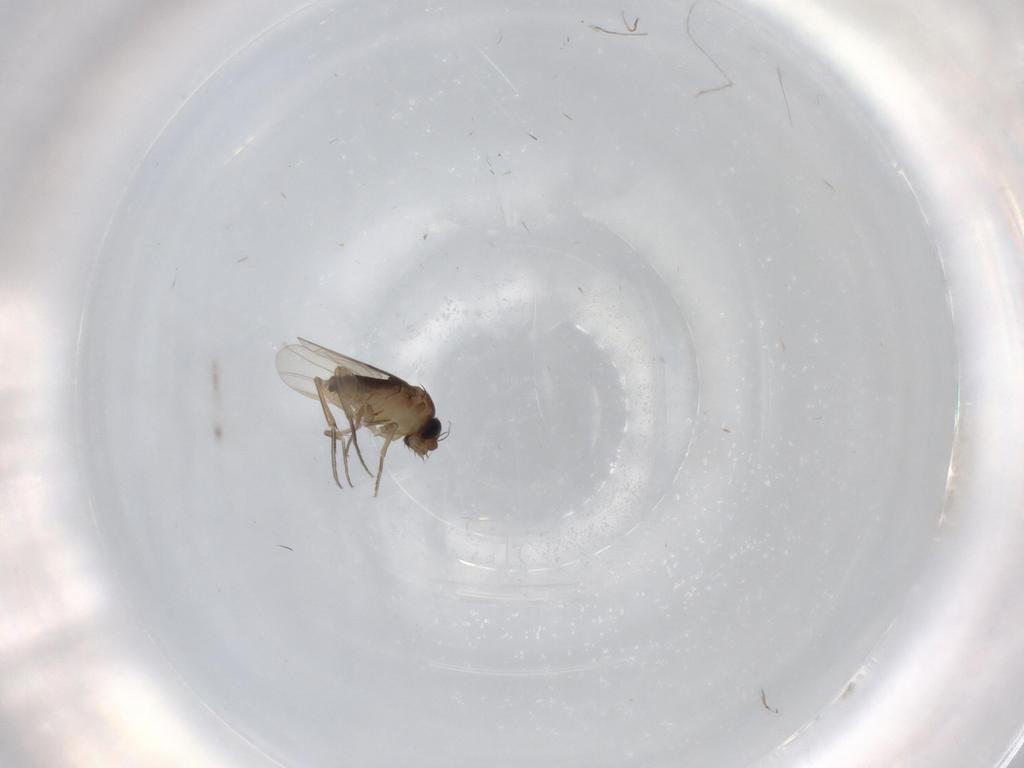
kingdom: Animalia
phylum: Arthropoda
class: Insecta
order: Diptera
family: Phoridae
